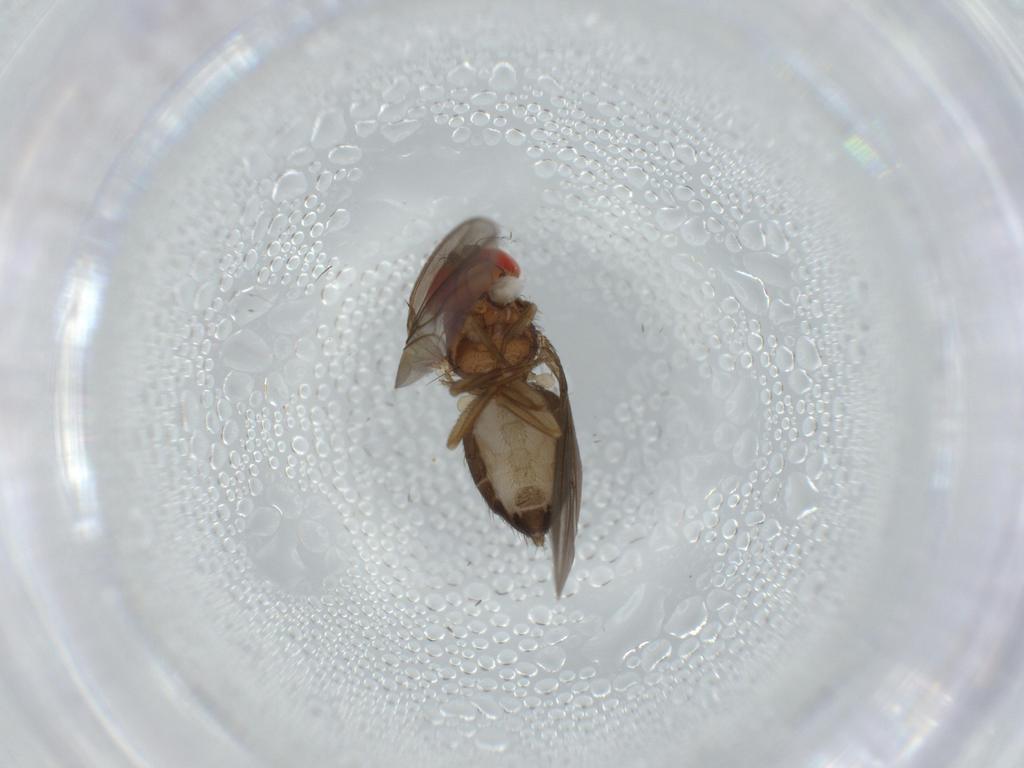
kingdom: Animalia
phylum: Arthropoda
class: Insecta
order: Diptera
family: Drosophilidae
